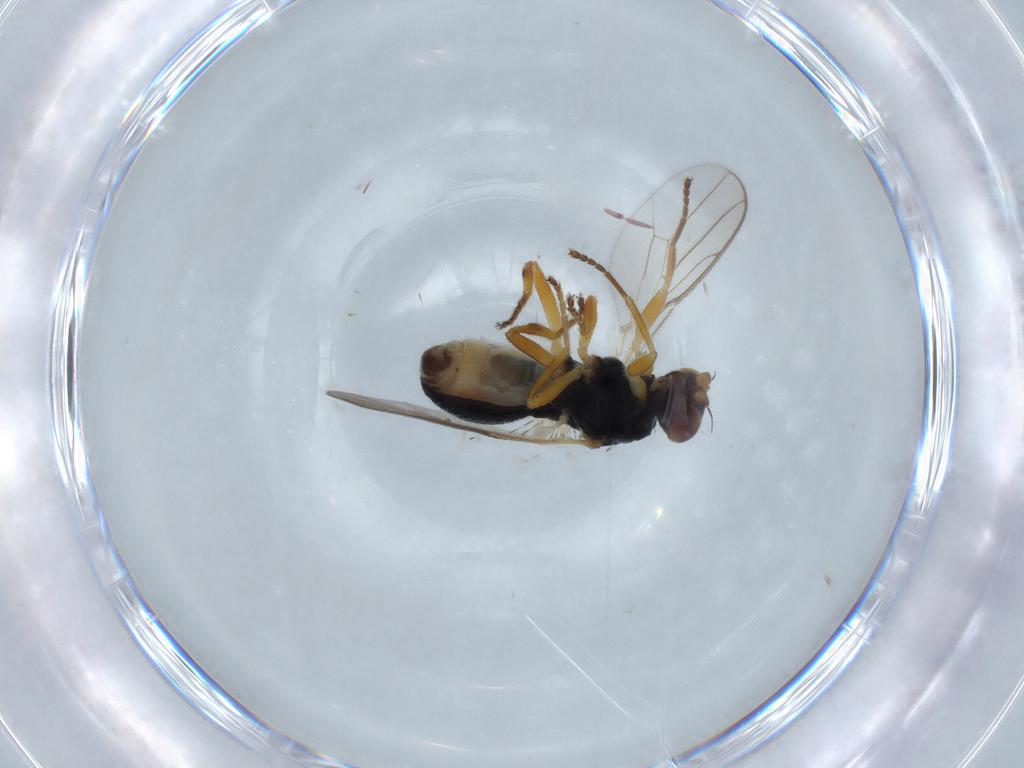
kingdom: Animalia
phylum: Arthropoda
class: Insecta
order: Diptera
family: Chloropidae
